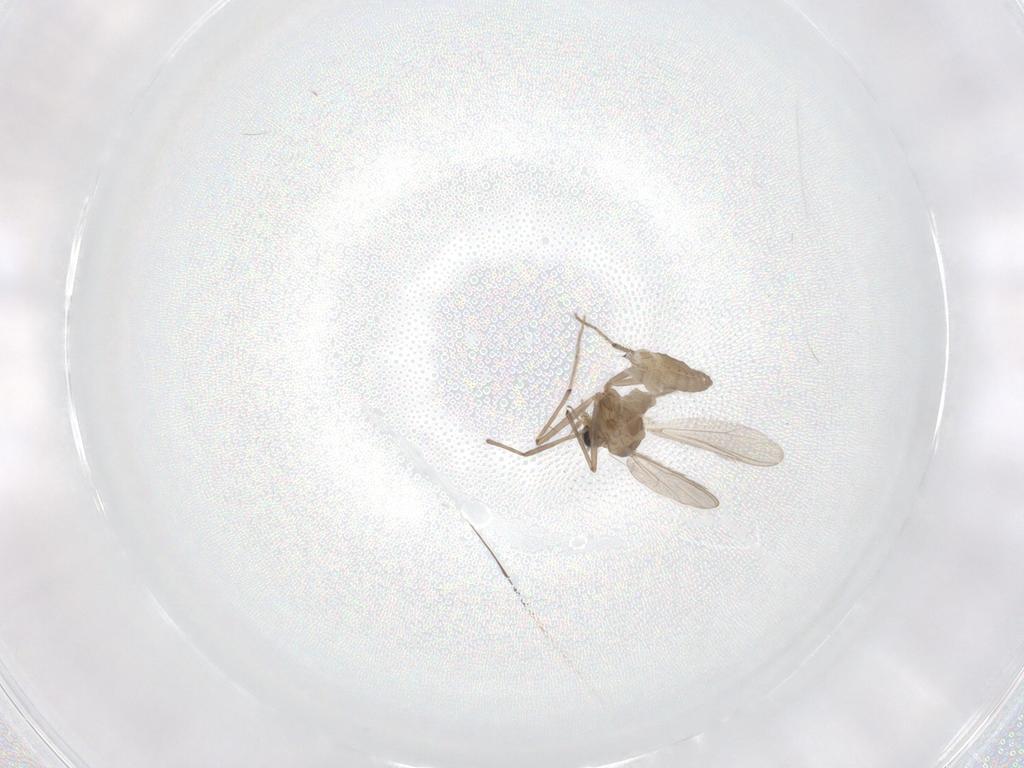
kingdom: Animalia
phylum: Arthropoda
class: Insecta
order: Diptera
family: Chironomidae
